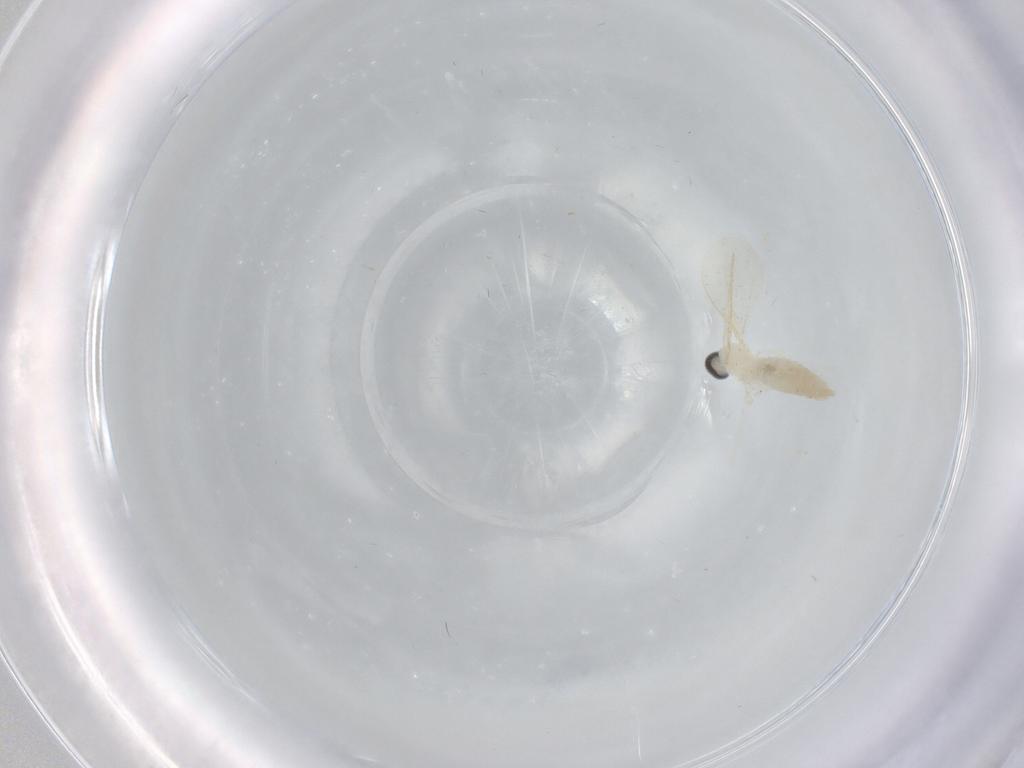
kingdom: Animalia
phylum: Arthropoda
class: Insecta
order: Diptera
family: Cecidomyiidae
